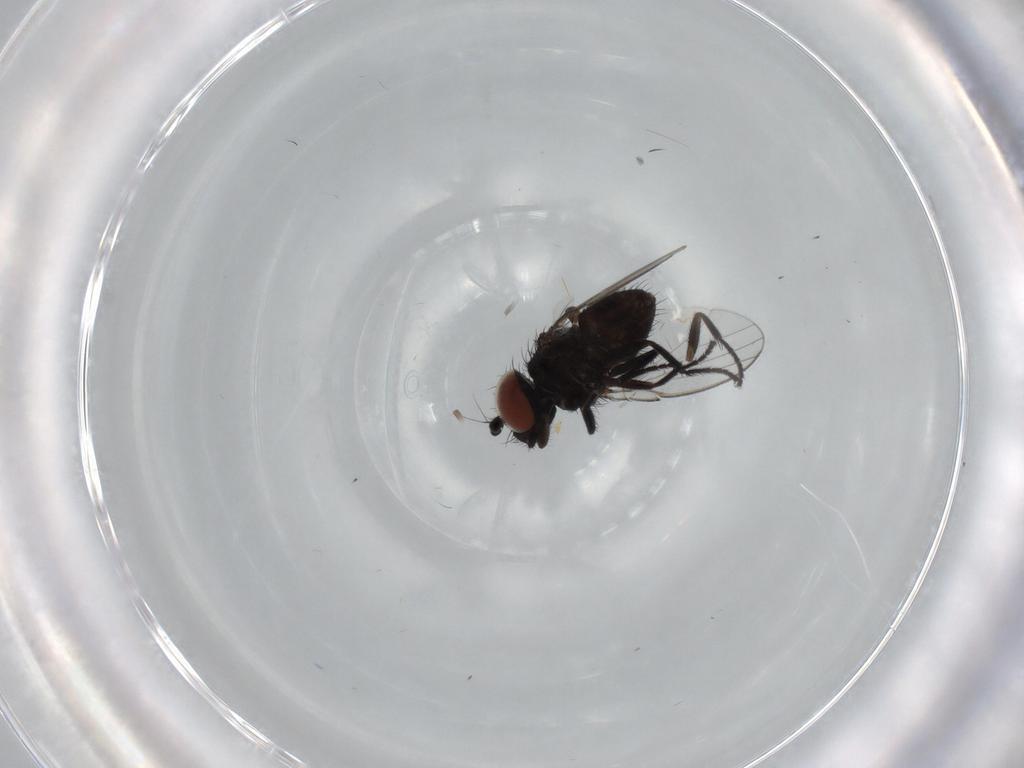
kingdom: Animalia
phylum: Arthropoda
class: Insecta
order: Diptera
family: Milichiidae
